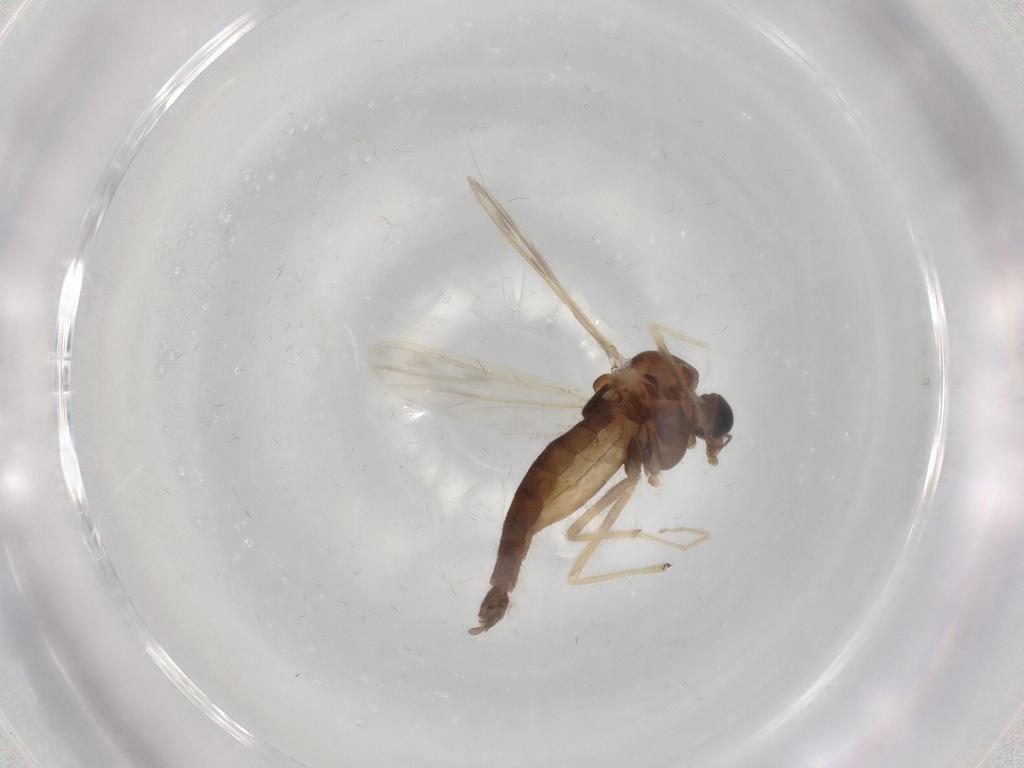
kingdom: Animalia
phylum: Arthropoda
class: Insecta
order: Diptera
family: Chironomidae
